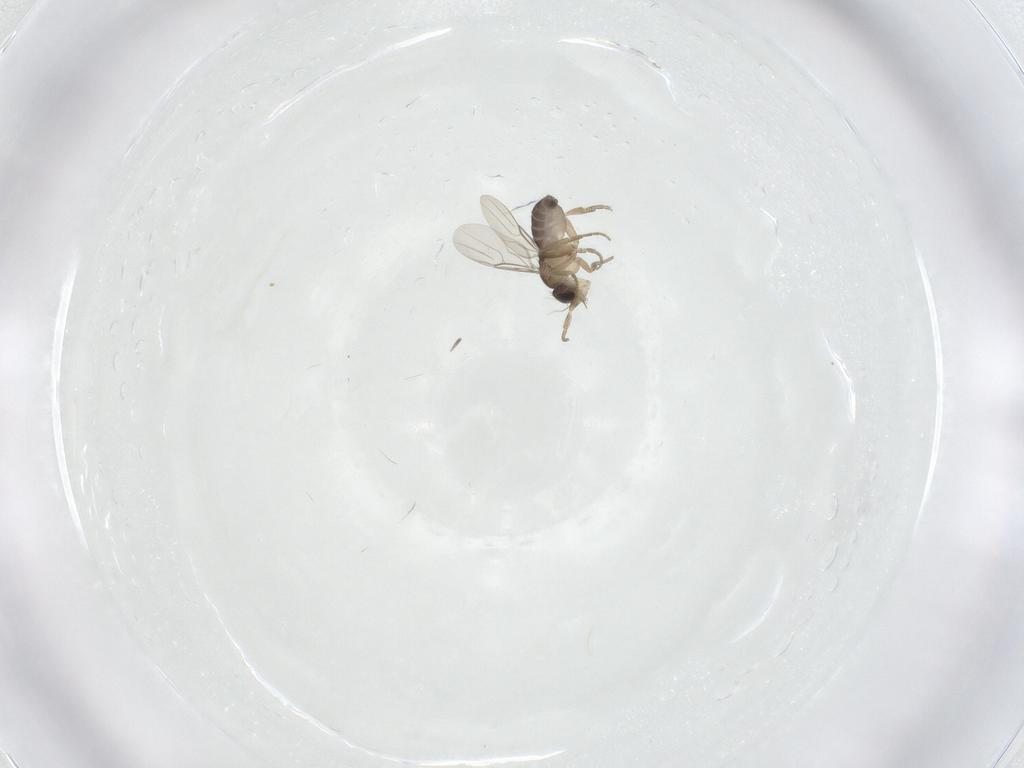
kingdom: Animalia
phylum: Arthropoda
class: Insecta
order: Diptera
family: Phoridae
